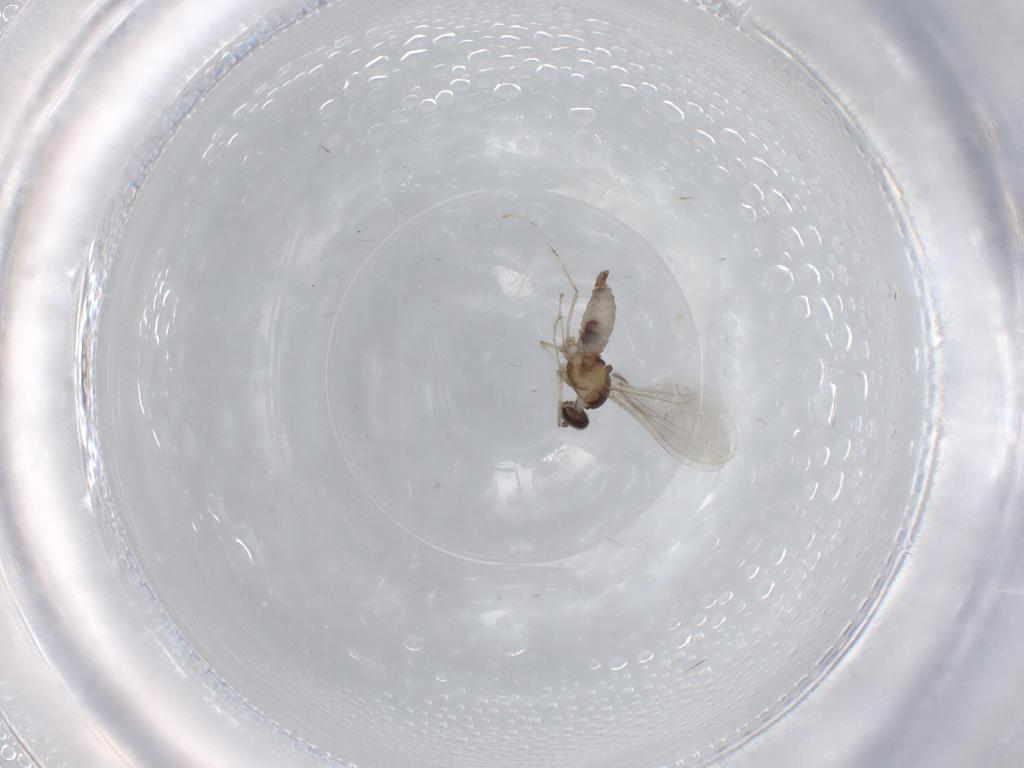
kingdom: Animalia
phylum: Arthropoda
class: Insecta
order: Diptera
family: Cecidomyiidae
